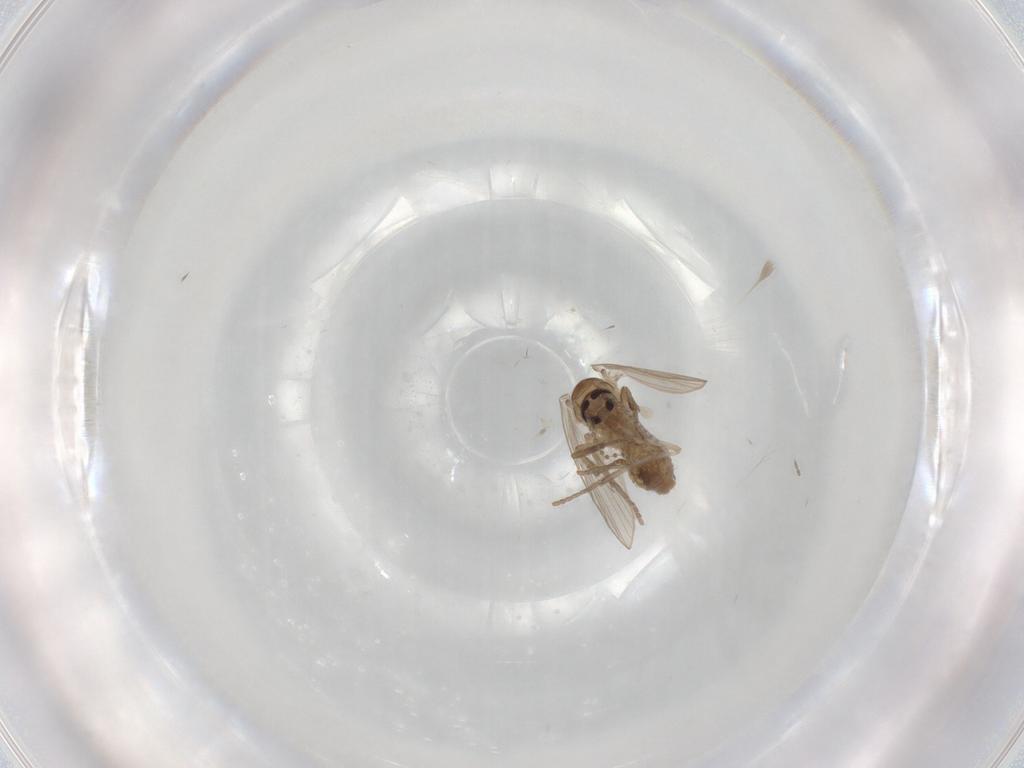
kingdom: Animalia
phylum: Arthropoda
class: Insecta
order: Diptera
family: Psychodidae
